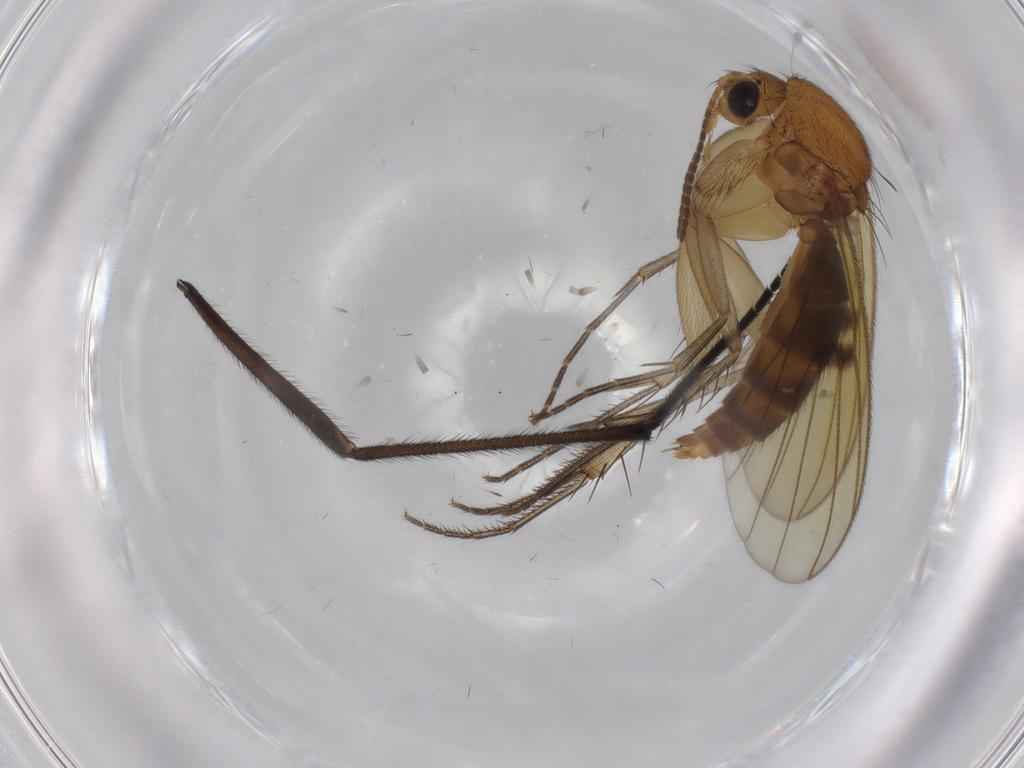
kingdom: Animalia
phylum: Arthropoda
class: Insecta
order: Diptera
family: Sciaridae
